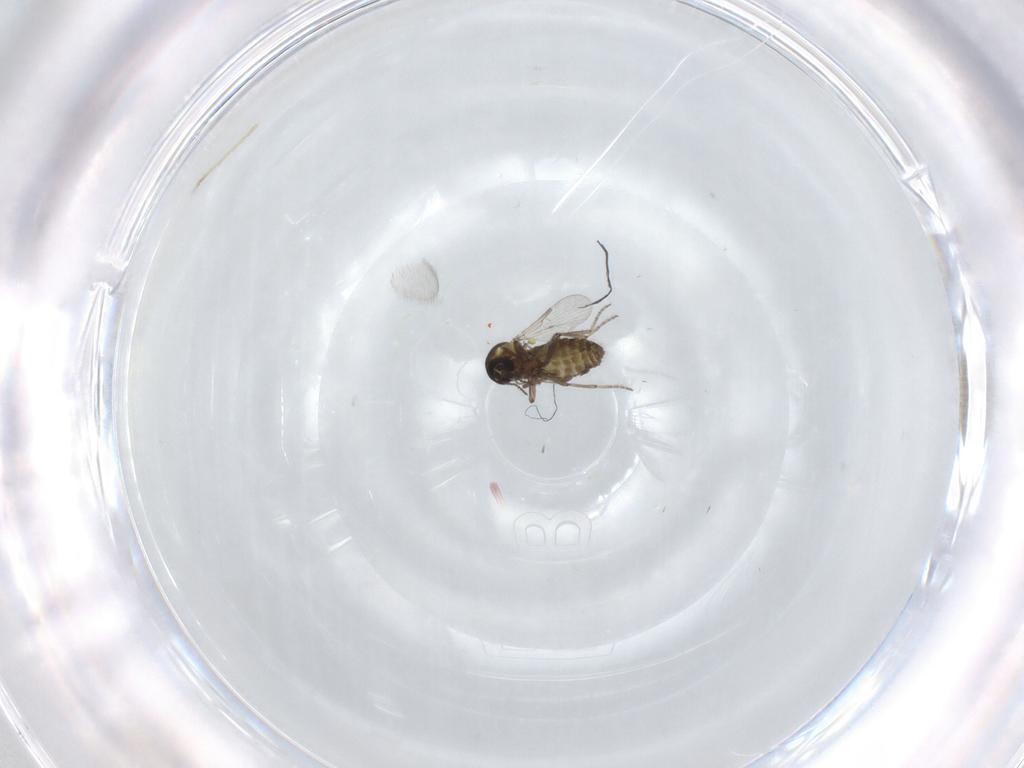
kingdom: Animalia
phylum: Arthropoda
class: Insecta
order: Diptera
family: Chironomidae
